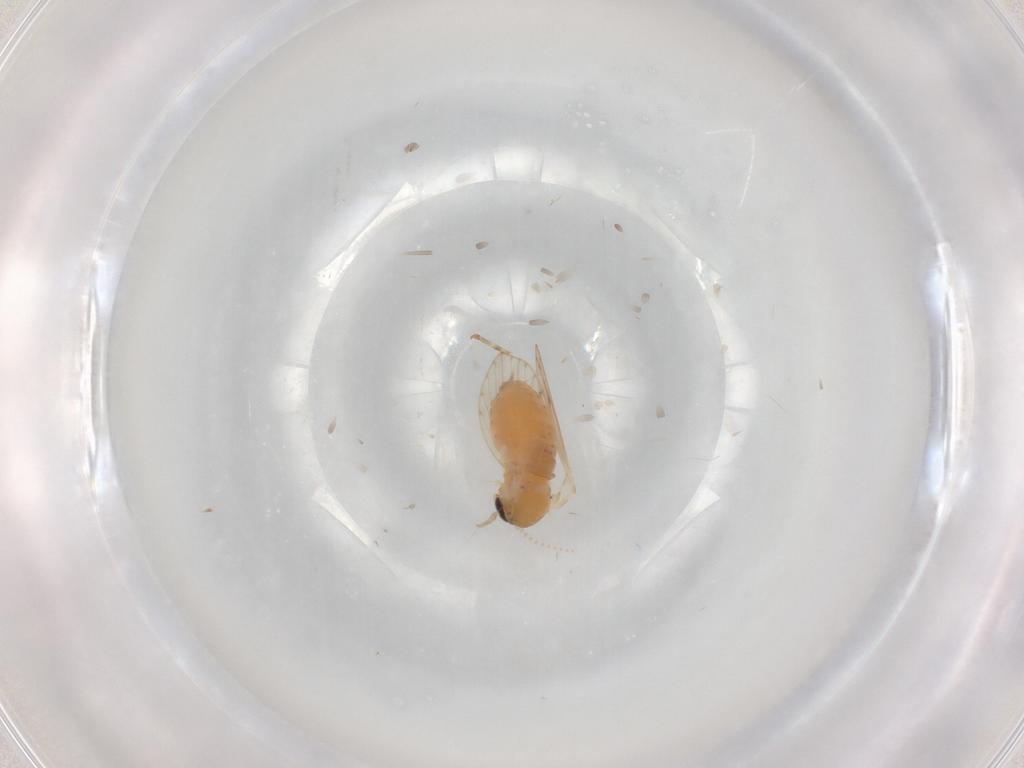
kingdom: Animalia
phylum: Arthropoda
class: Insecta
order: Diptera
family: Psychodidae
